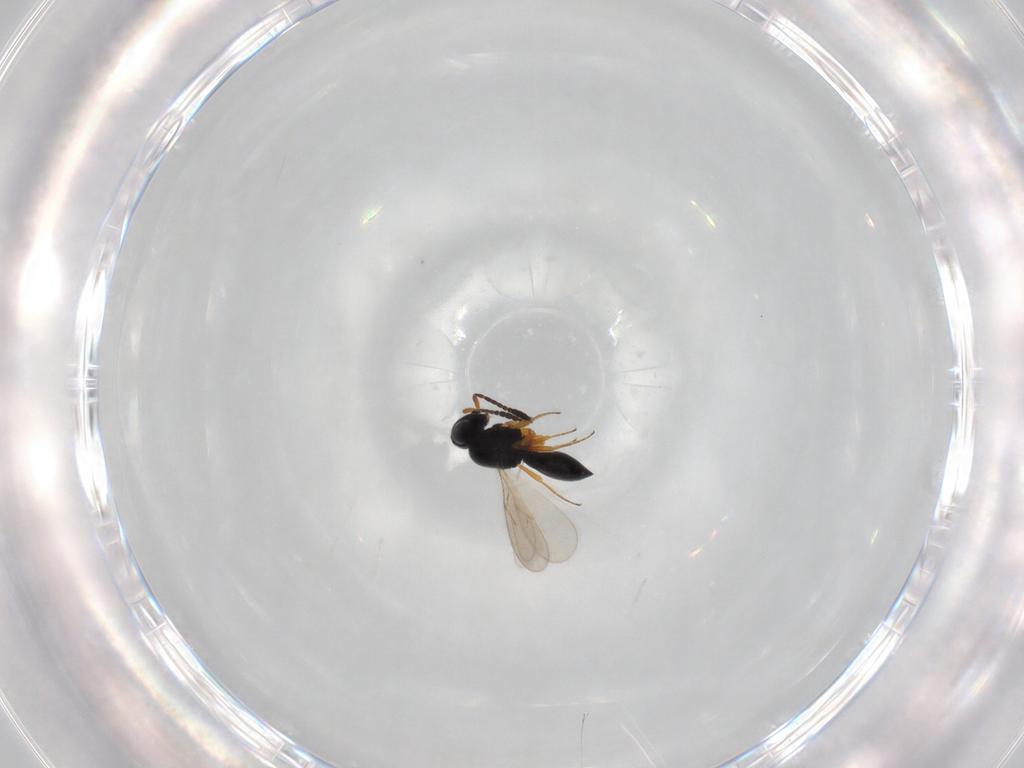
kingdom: Animalia
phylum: Arthropoda
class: Insecta
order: Hymenoptera
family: Scelionidae
